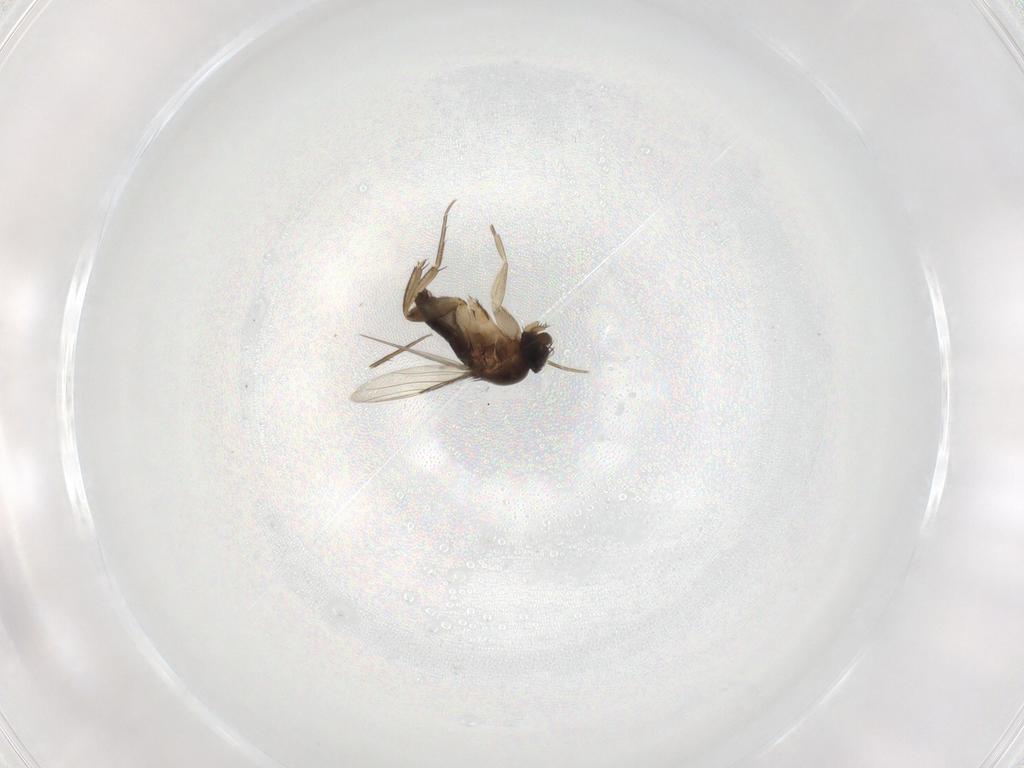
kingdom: Animalia
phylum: Arthropoda
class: Insecta
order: Diptera
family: Phoridae
